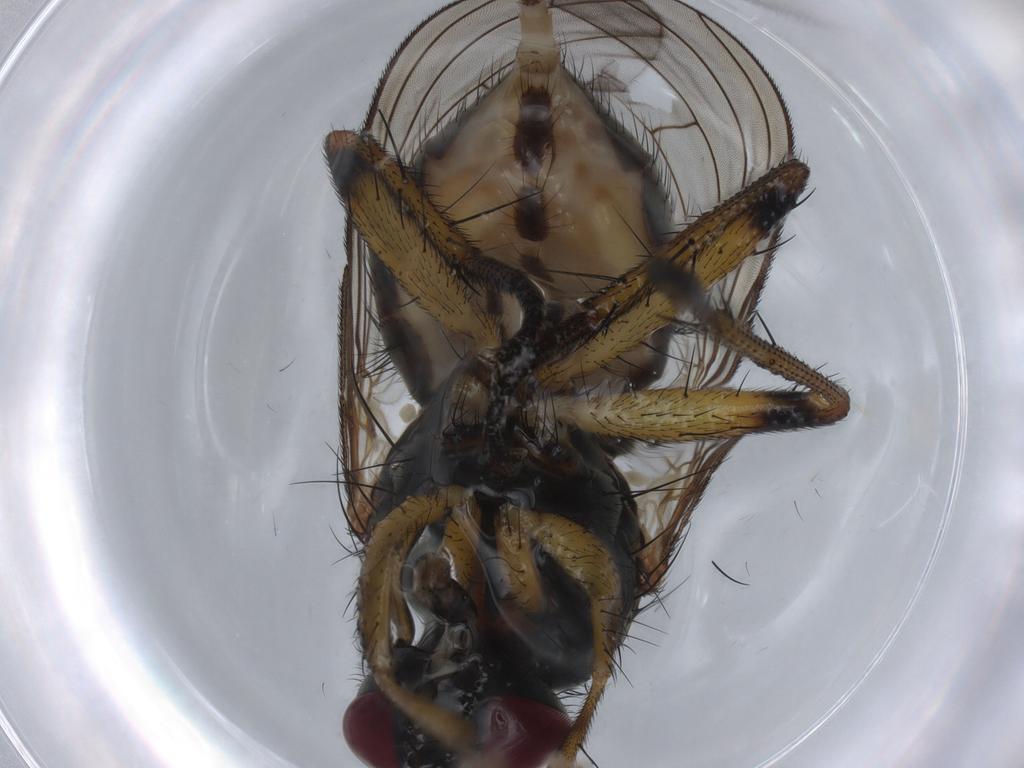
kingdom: Animalia
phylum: Arthropoda
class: Insecta
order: Diptera
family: Muscidae
